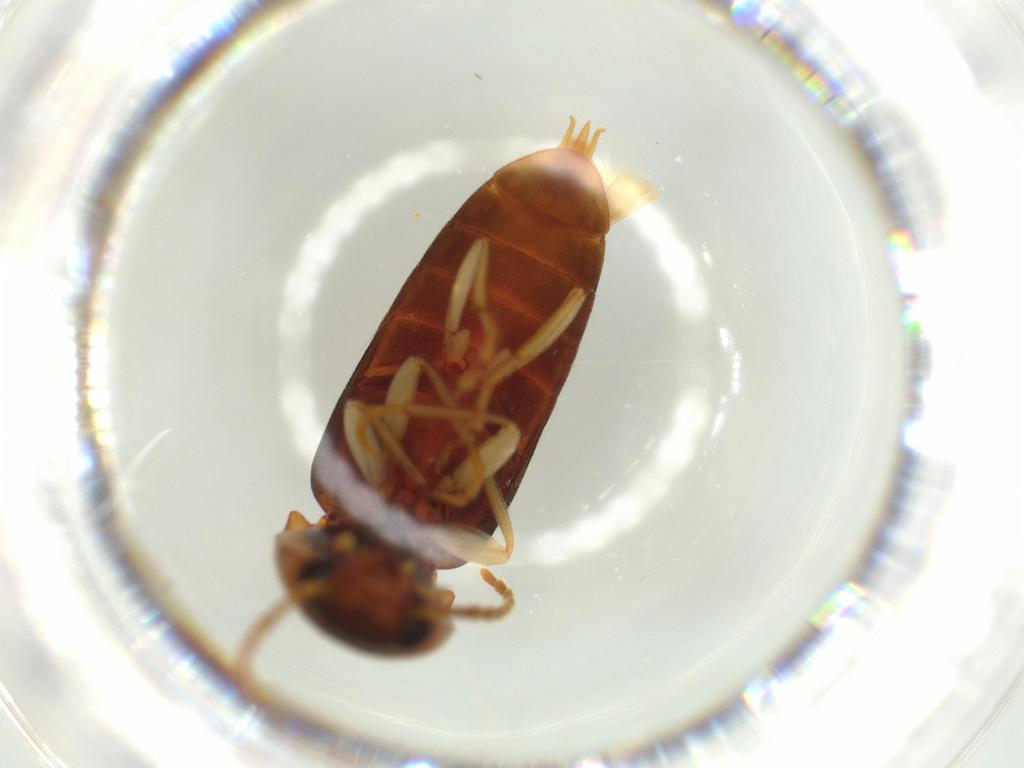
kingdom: Animalia
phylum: Arthropoda
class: Insecta
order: Coleoptera
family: Elateridae
